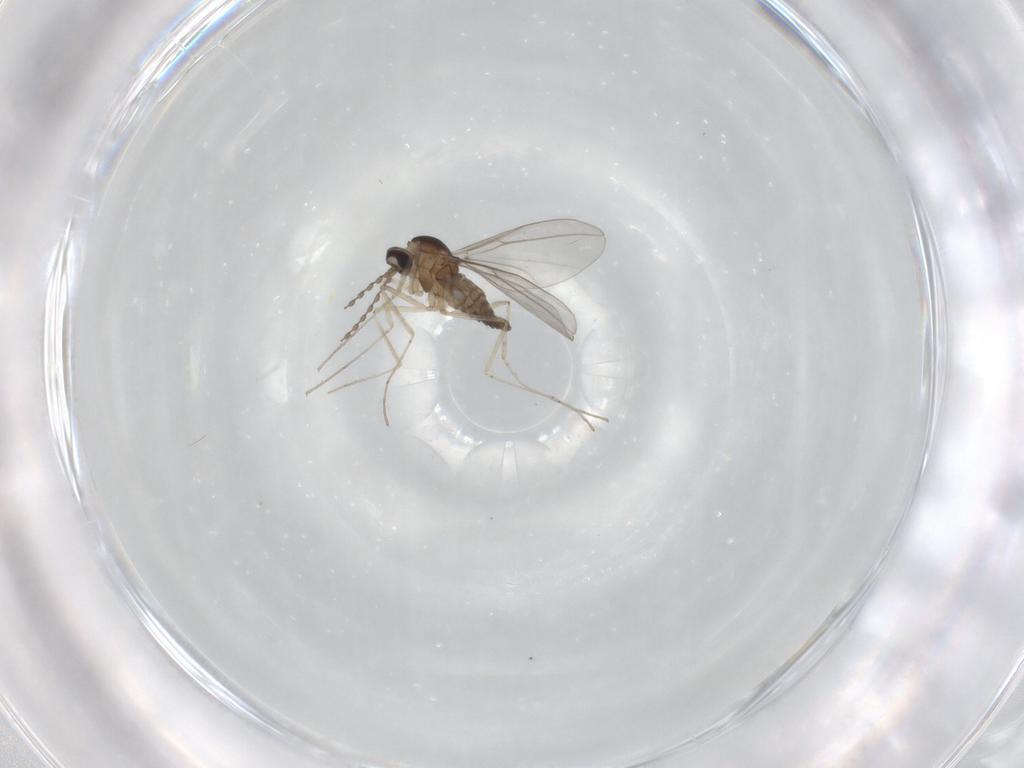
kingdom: Animalia
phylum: Arthropoda
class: Insecta
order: Diptera
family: Cecidomyiidae
